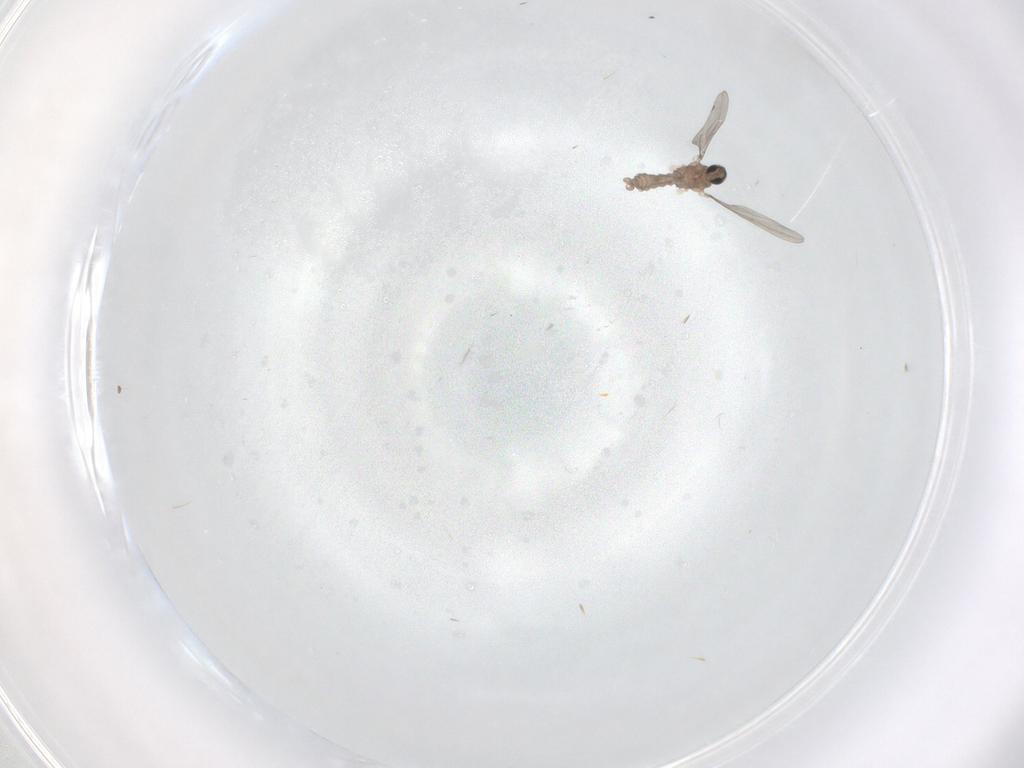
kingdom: Animalia
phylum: Arthropoda
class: Insecta
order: Diptera
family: Cecidomyiidae
